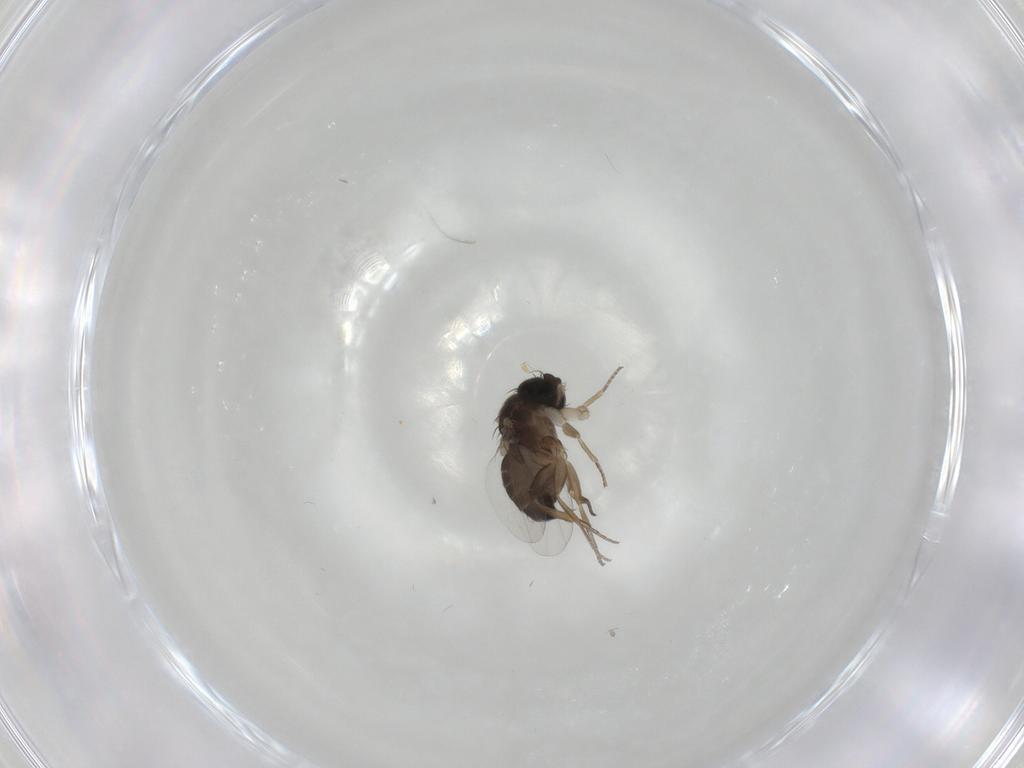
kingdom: Animalia
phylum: Arthropoda
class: Insecta
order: Diptera
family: Phoridae
